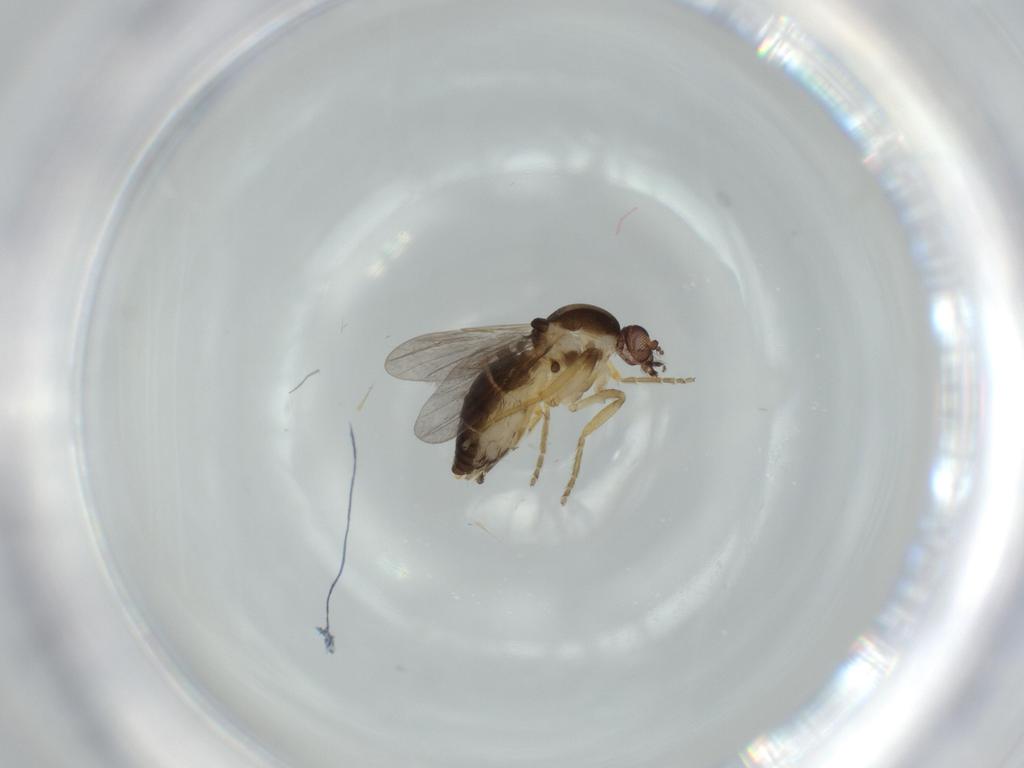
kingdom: Animalia
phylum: Arthropoda
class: Insecta
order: Diptera
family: Ceratopogonidae
